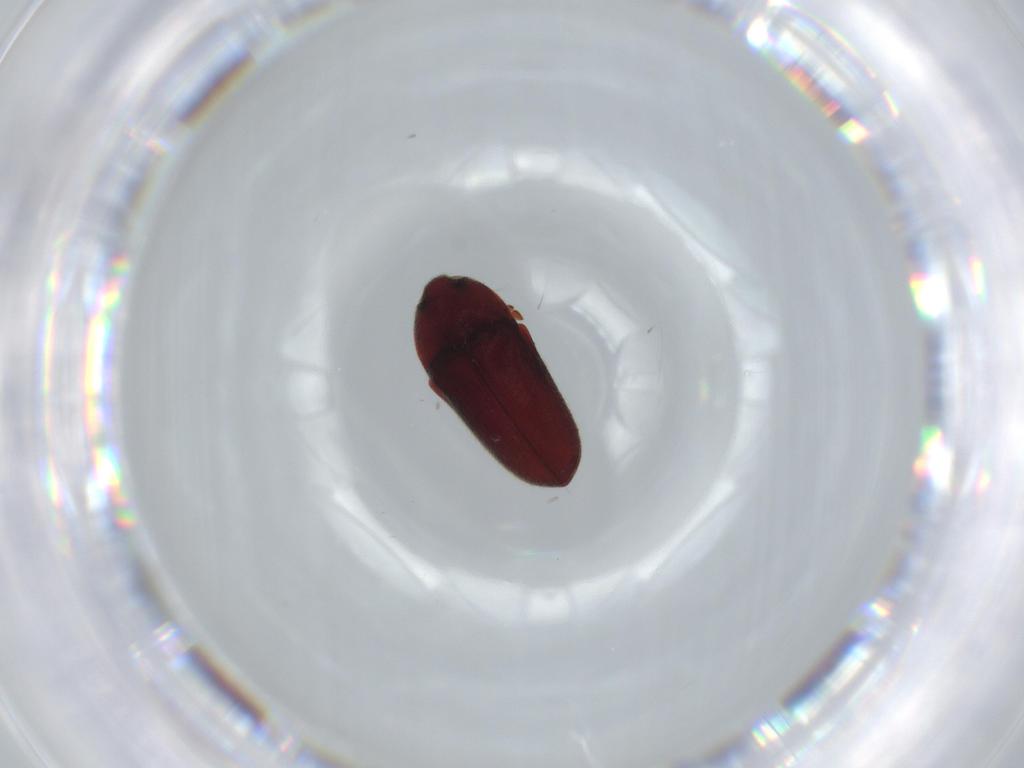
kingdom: Animalia
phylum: Arthropoda
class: Insecta
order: Coleoptera
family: Throscidae
